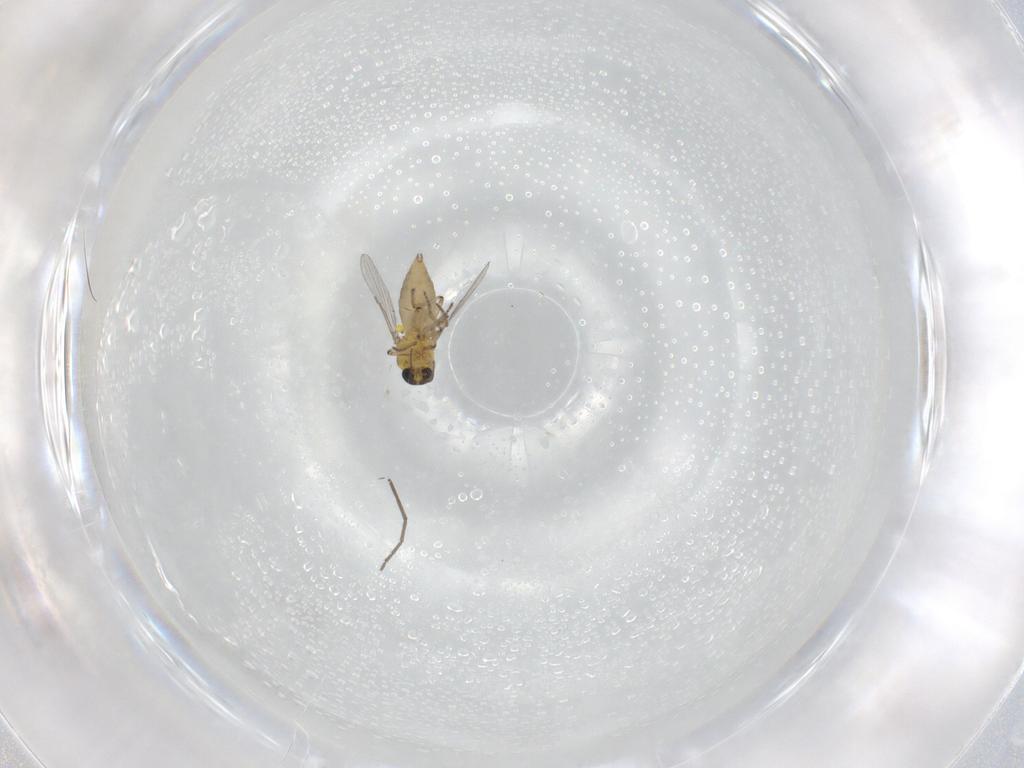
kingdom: Animalia
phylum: Arthropoda
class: Insecta
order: Diptera
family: Ceratopogonidae
